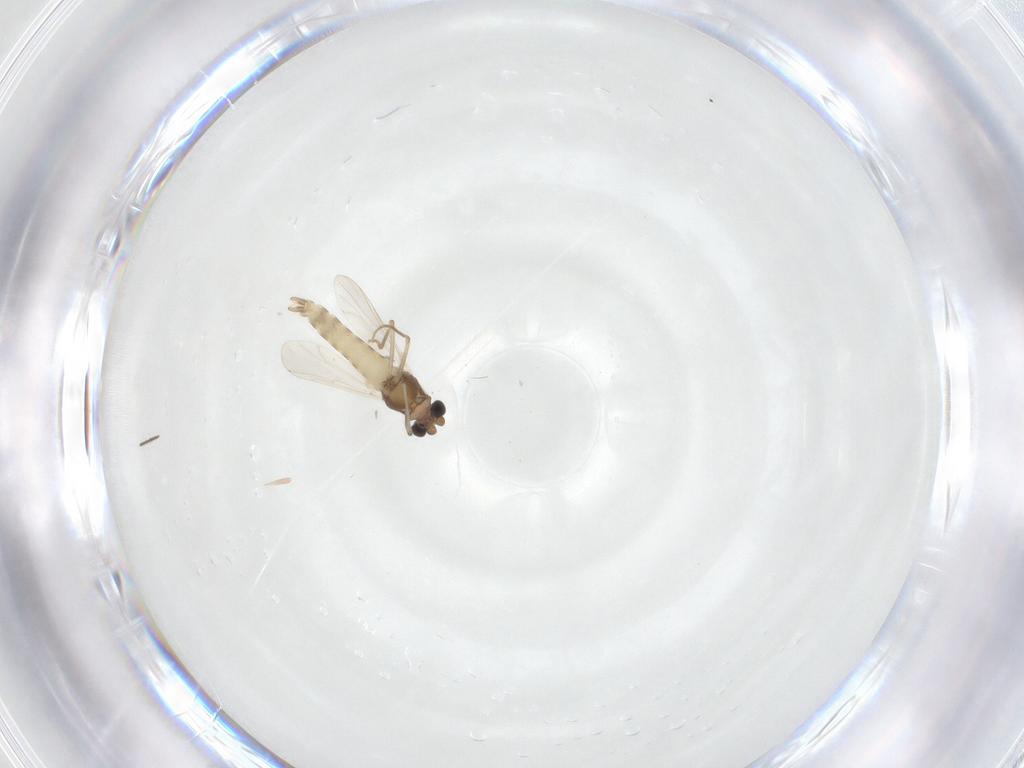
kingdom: Animalia
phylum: Arthropoda
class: Insecta
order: Diptera
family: Chironomidae
